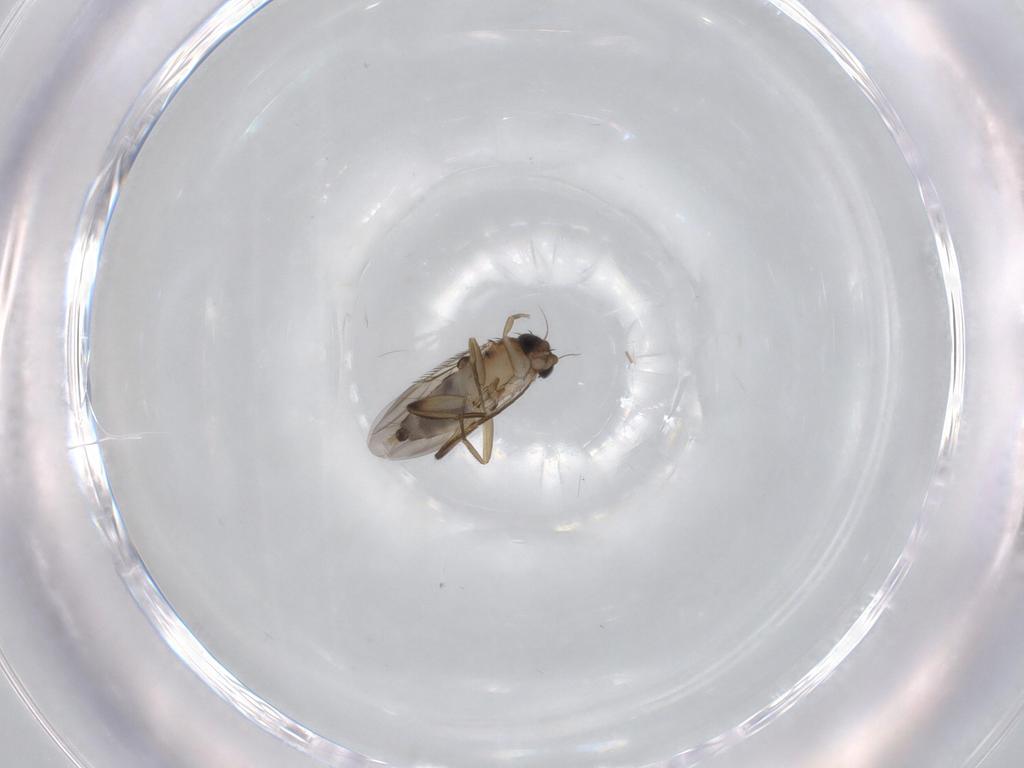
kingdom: Animalia
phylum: Arthropoda
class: Insecta
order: Diptera
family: Phoridae
